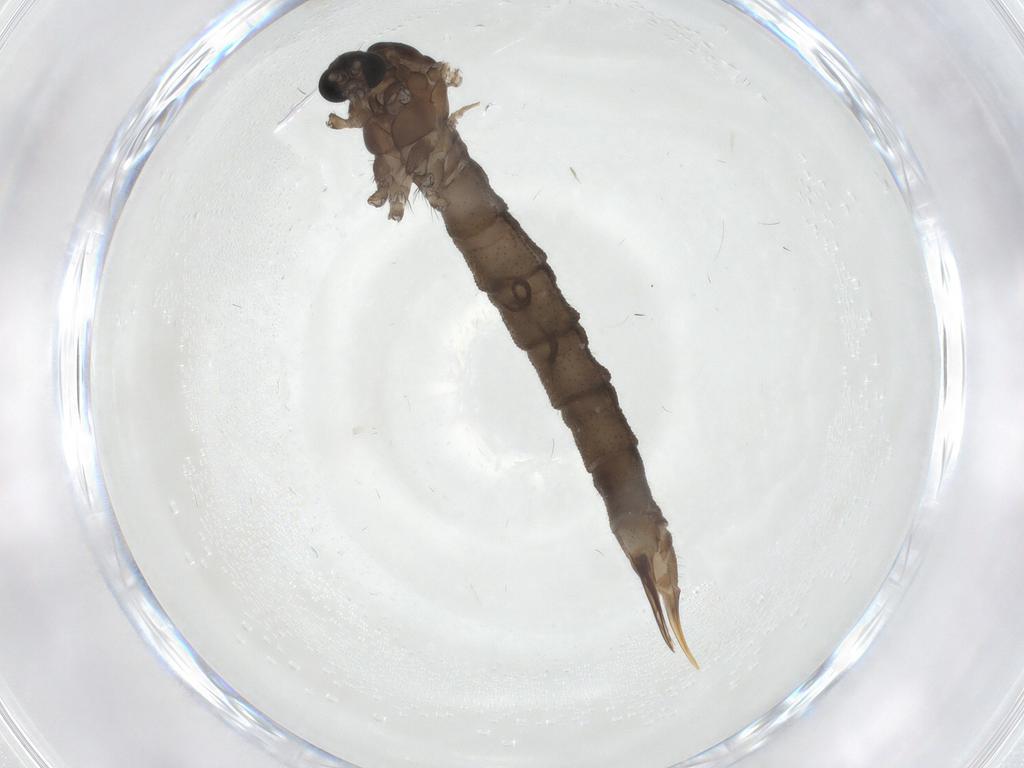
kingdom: Animalia
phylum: Arthropoda
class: Insecta
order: Diptera
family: Limoniidae
